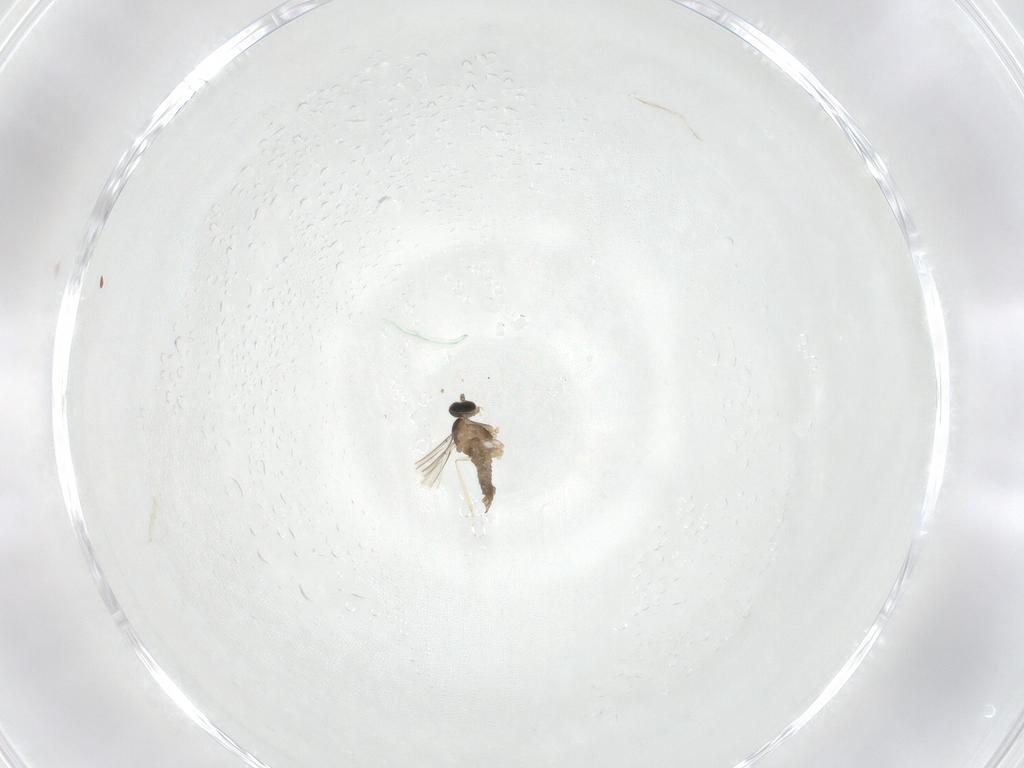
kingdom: Animalia
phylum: Arthropoda
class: Insecta
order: Diptera
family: Cecidomyiidae
